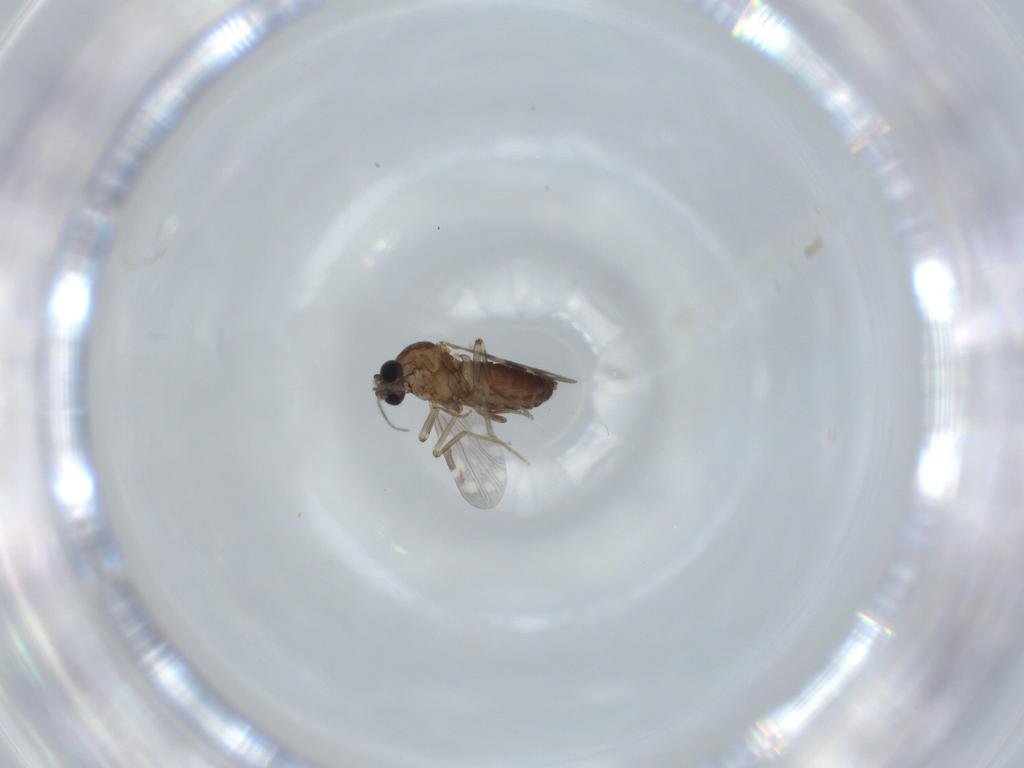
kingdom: Animalia
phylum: Arthropoda
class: Insecta
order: Diptera
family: Ceratopogonidae
